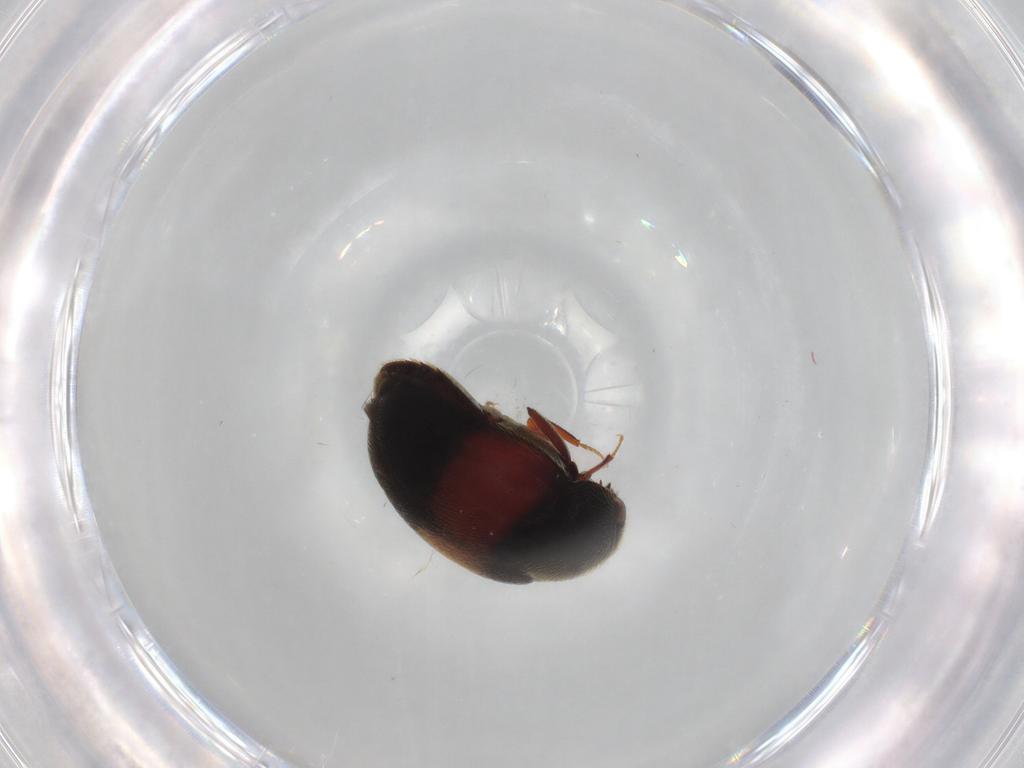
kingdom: Animalia
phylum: Arthropoda
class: Insecta
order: Coleoptera
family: Dermestidae
